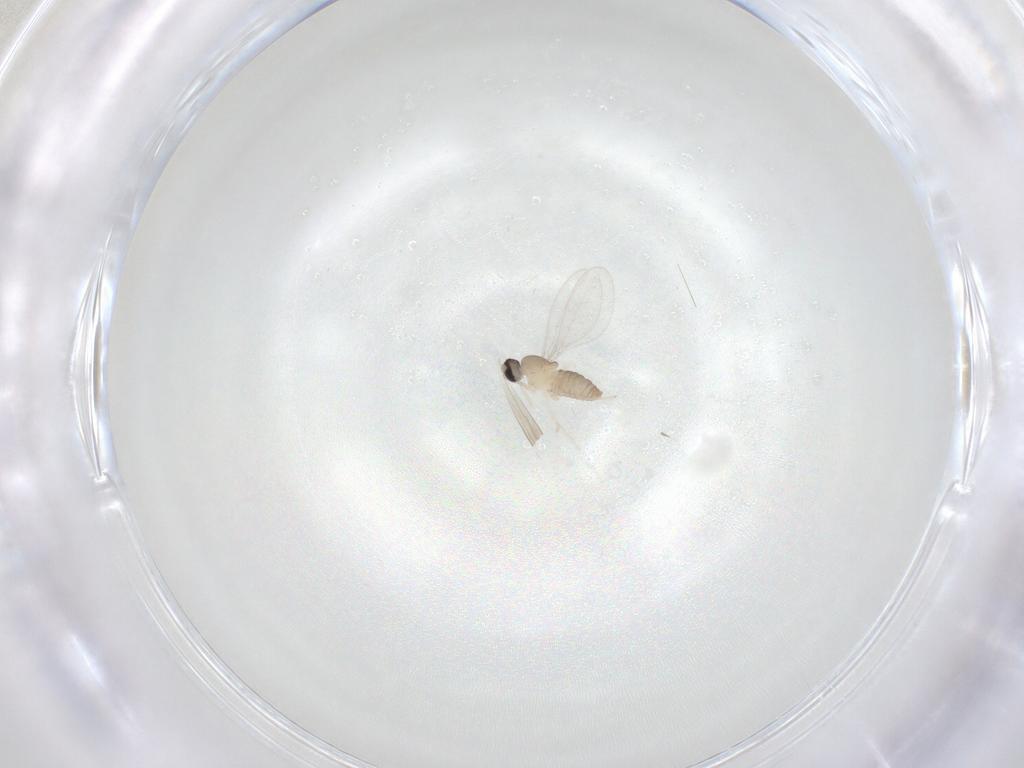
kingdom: Animalia
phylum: Arthropoda
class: Insecta
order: Diptera
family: Cecidomyiidae
